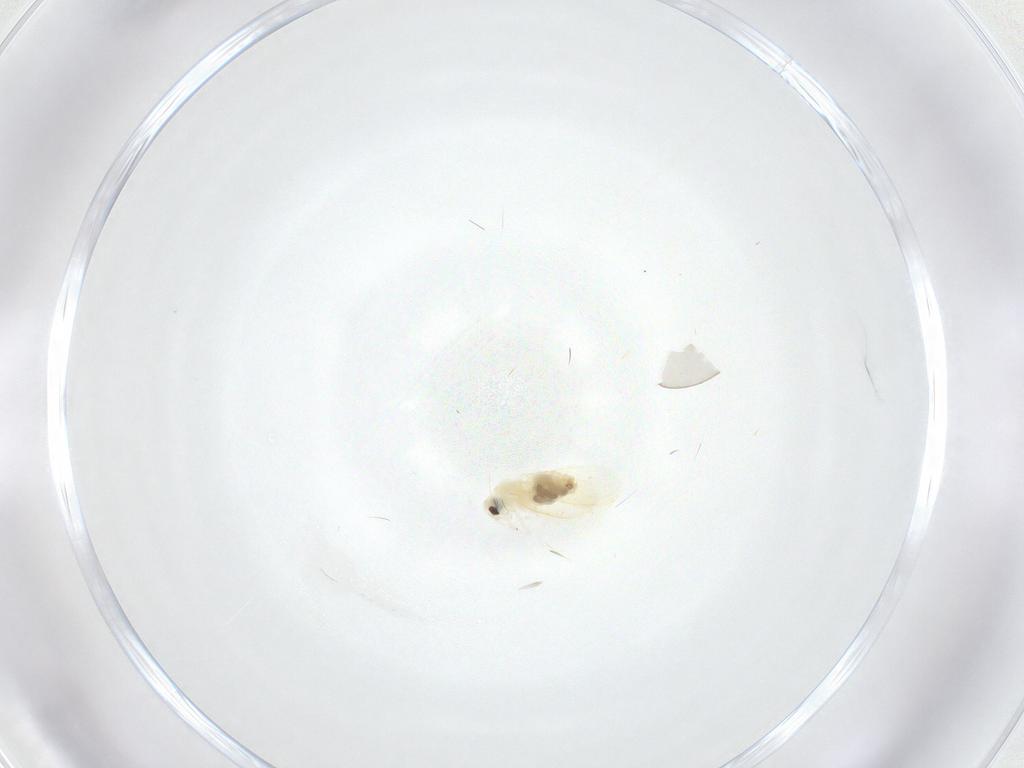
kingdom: Animalia
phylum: Arthropoda
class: Insecta
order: Hemiptera
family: Aleyrodidae
